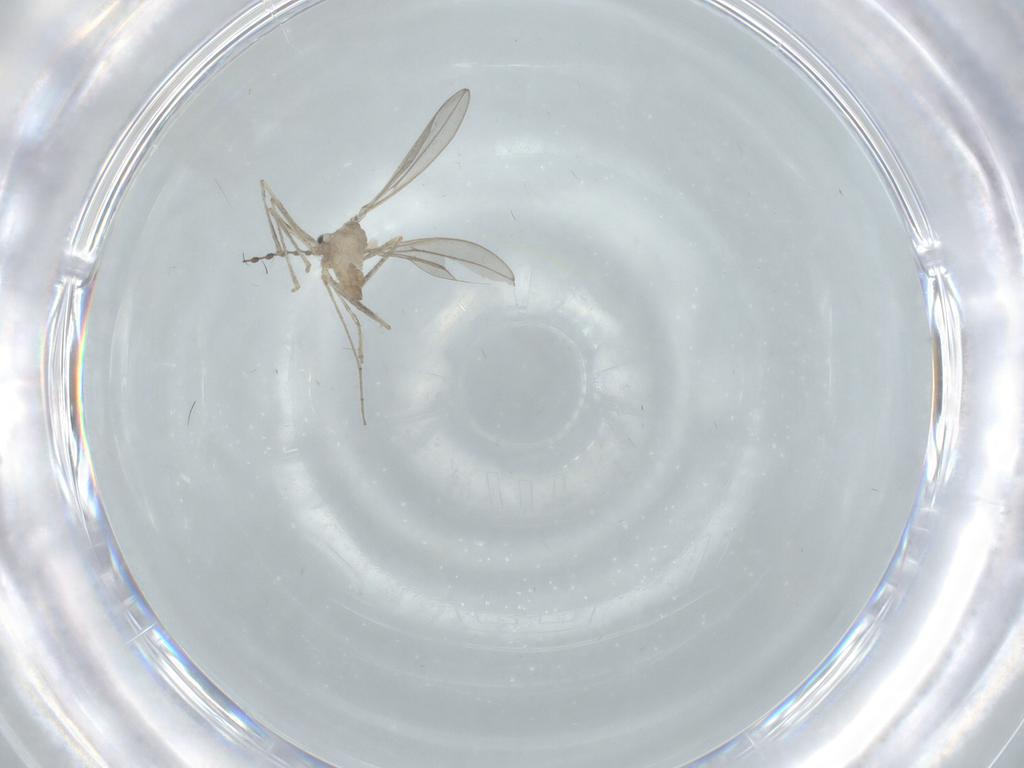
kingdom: Animalia
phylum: Arthropoda
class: Insecta
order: Diptera
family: Cecidomyiidae
